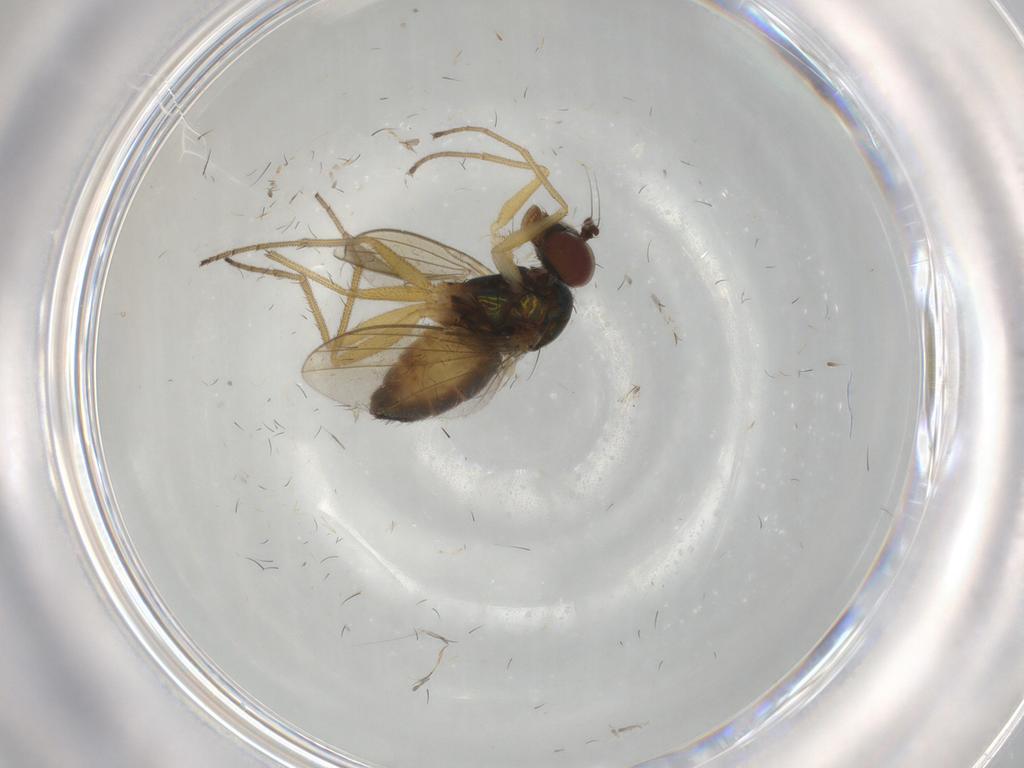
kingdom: Animalia
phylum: Arthropoda
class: Insecta
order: Diptera
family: Dolichopodidae
